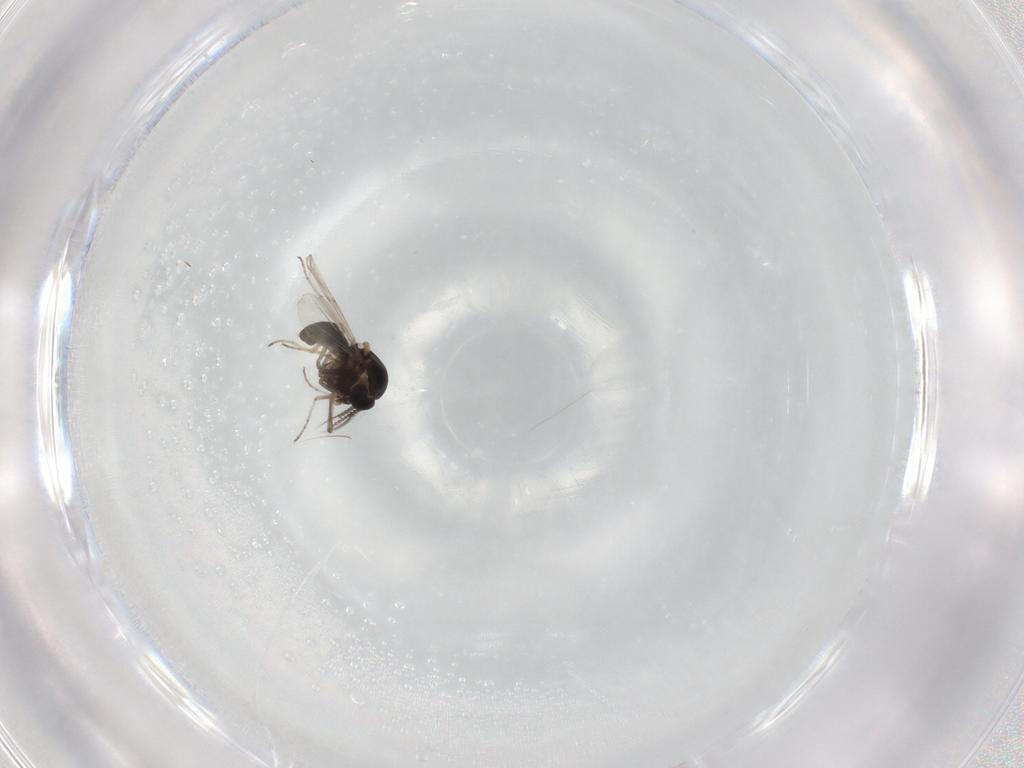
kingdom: Animalia
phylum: Arthropoda
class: Insecta
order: Diptera
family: Ceratopogonidae
